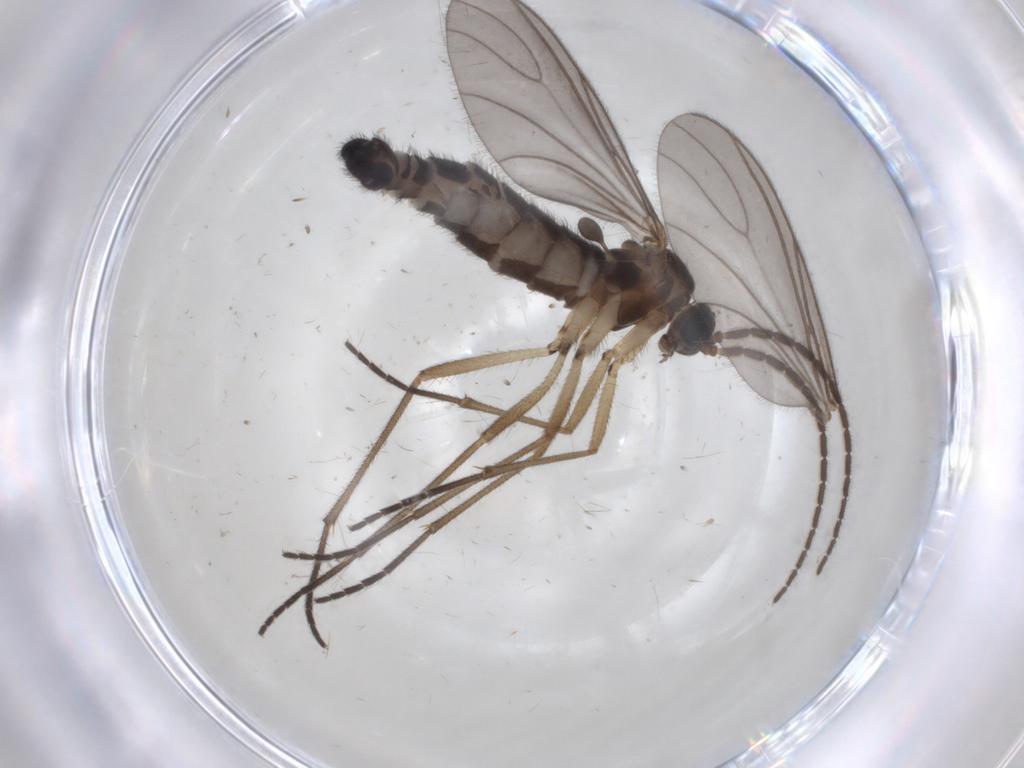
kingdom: Animalia
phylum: Arthropoda
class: Insecta
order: Diptera
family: Sciaridae
